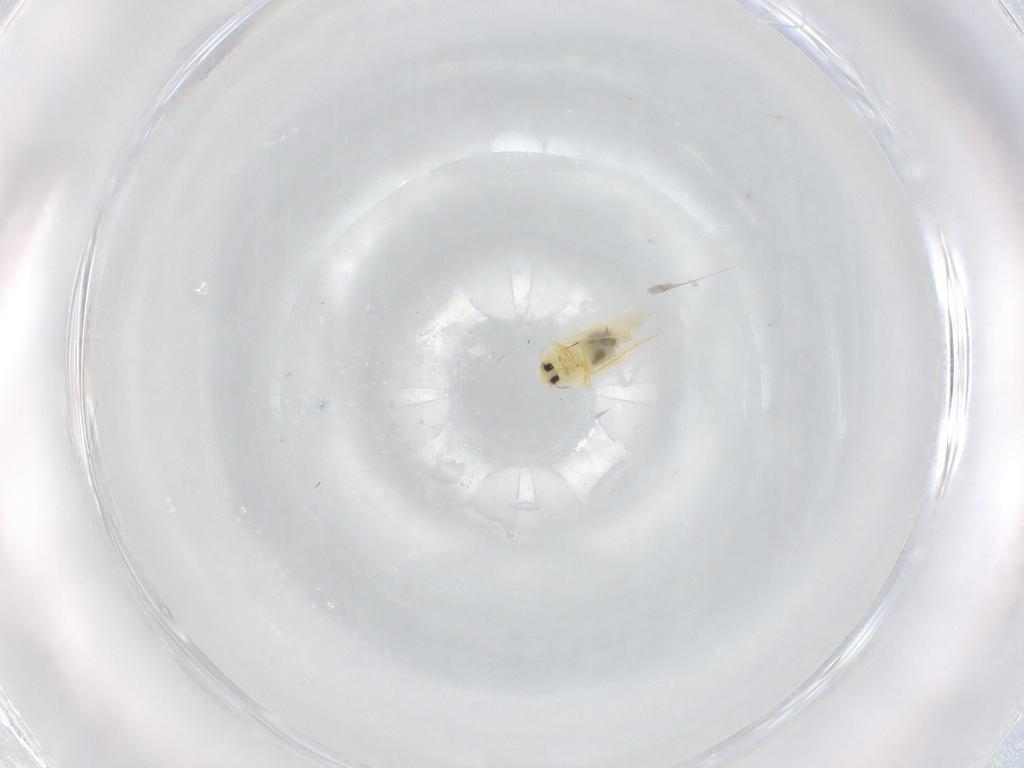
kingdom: Animalia
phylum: Arthropoda
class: Insecta
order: Hemiptera
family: Aleyrodidae
